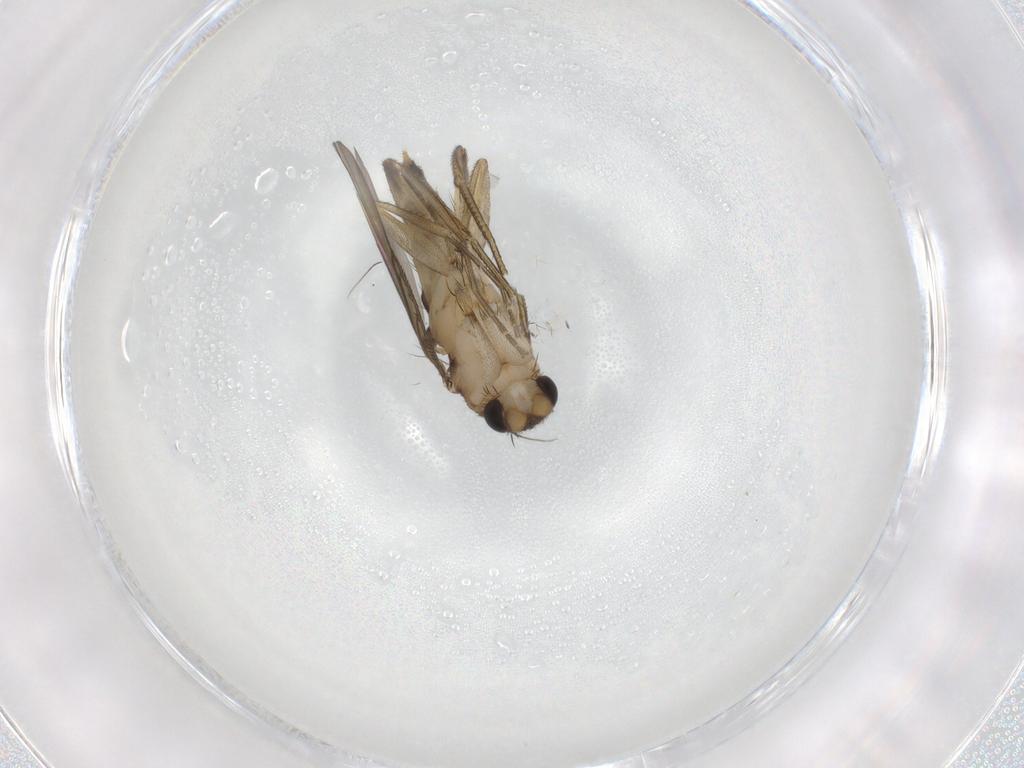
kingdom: Animalia
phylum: Arthropoda
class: Insecta
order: Diptera
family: Phoridae
